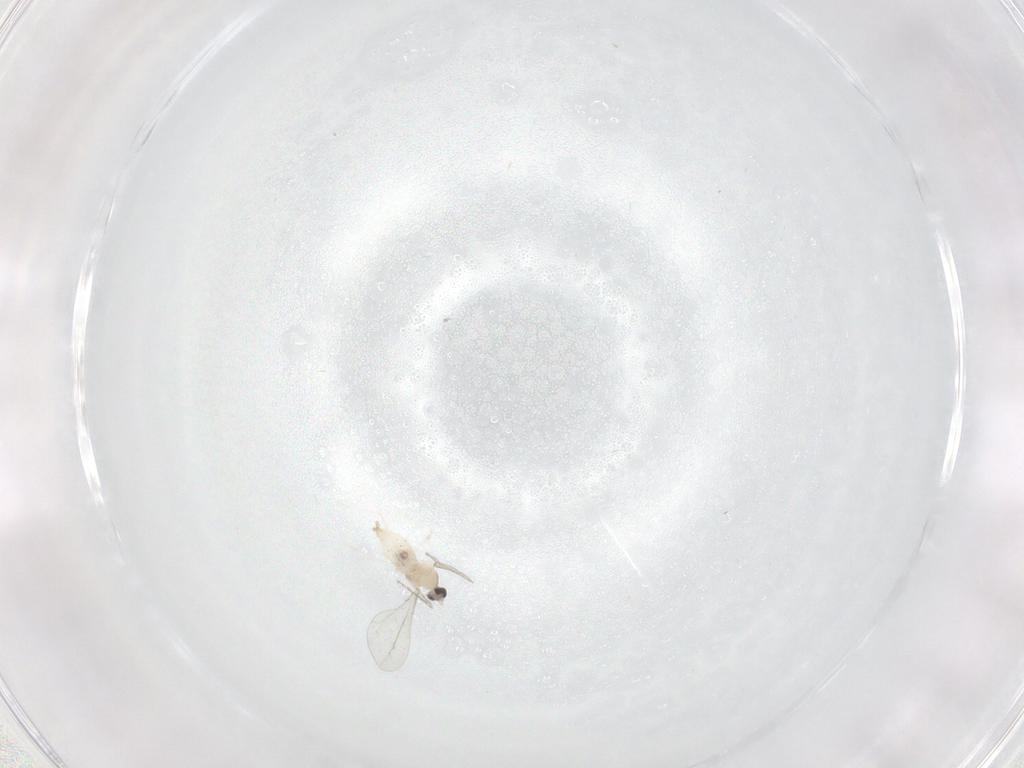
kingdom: Animalia
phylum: Arthropoda
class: Insecta
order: Diptera
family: Cecidomyiidae
